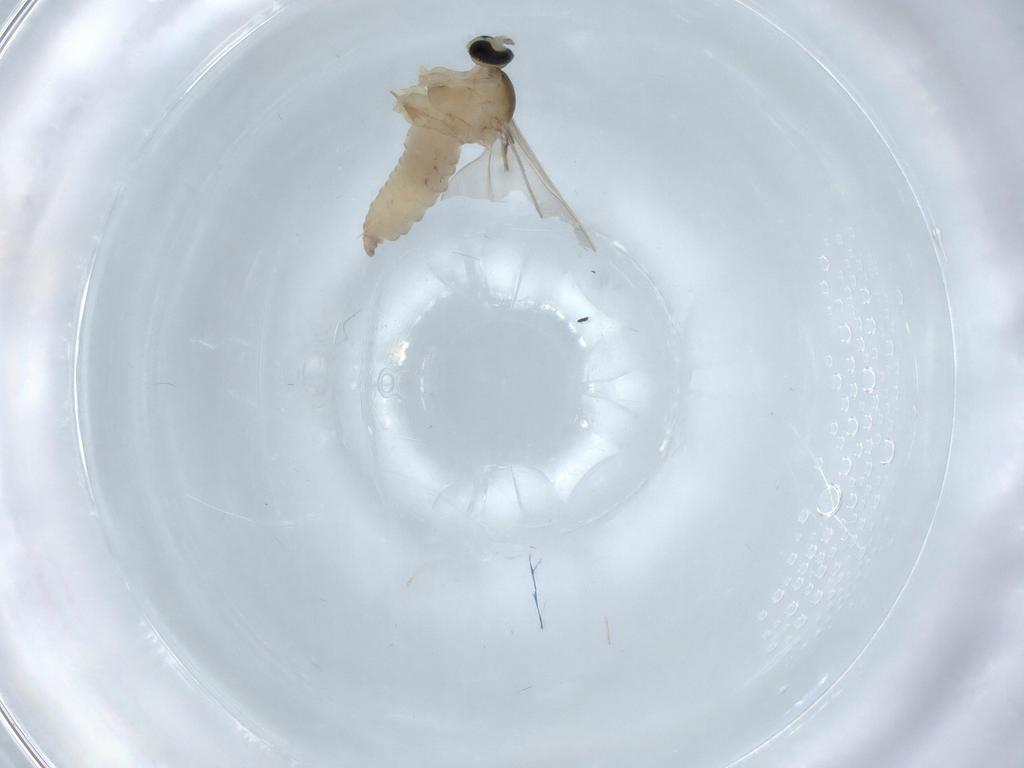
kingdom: Animalia
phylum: Arthropoda
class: Insecta
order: Diptera
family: Cecidomyiidae
